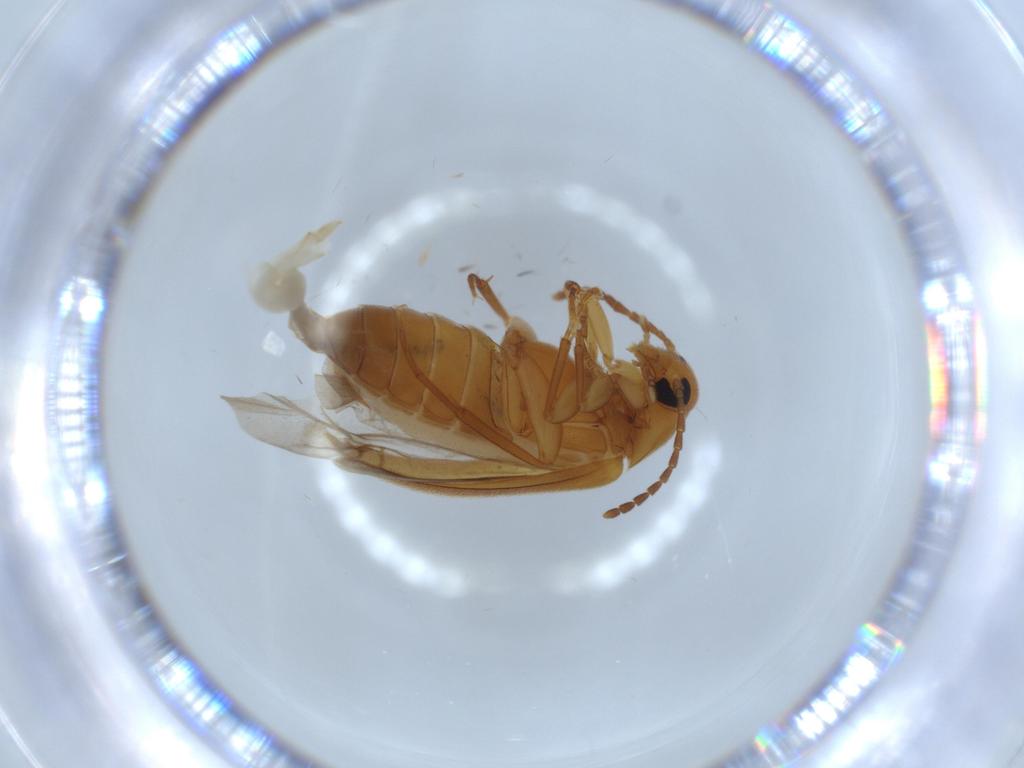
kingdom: Animalia
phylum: Arthropoda
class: Insecta
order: Coleoptera
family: Scraptiidae
